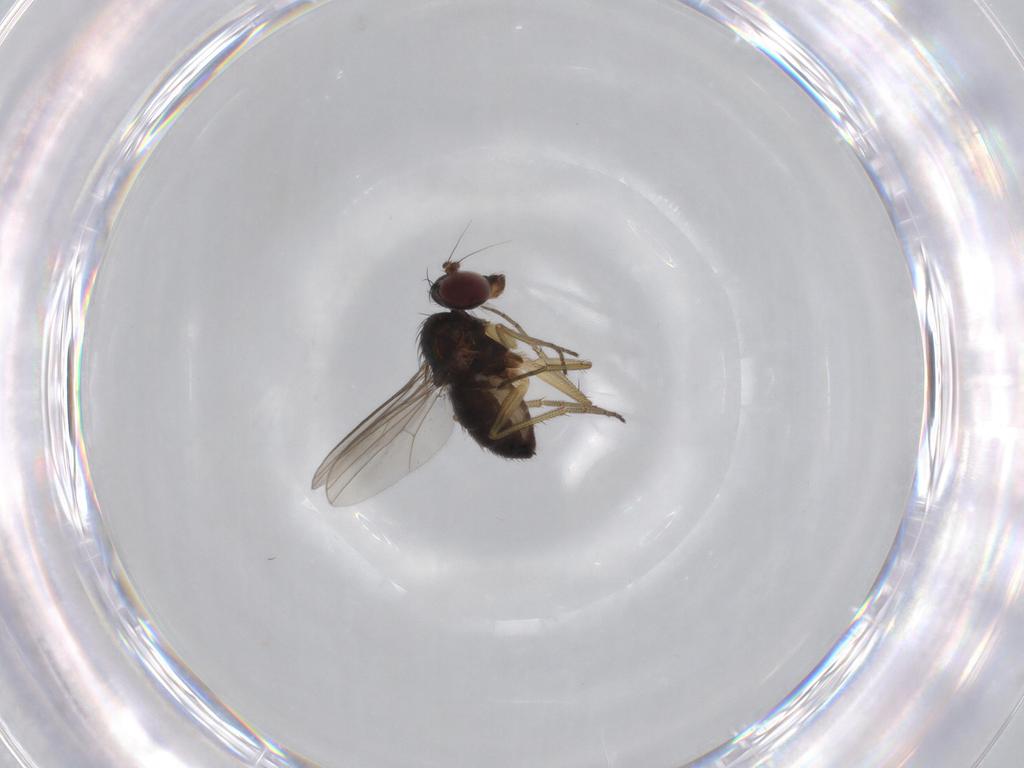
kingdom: Animalia
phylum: Arthropoda
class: Insecta
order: Diptera
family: Dolichopodidae
